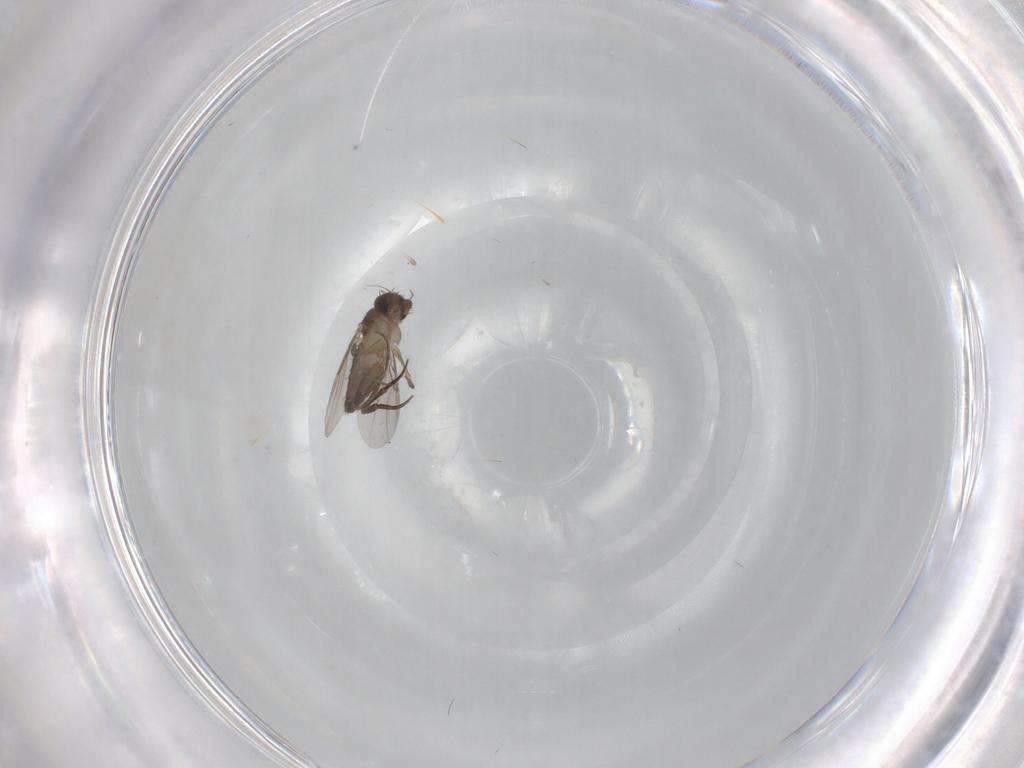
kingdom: Animalia
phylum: Arthropoda
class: Insecta
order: Diptera
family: Phoridae
